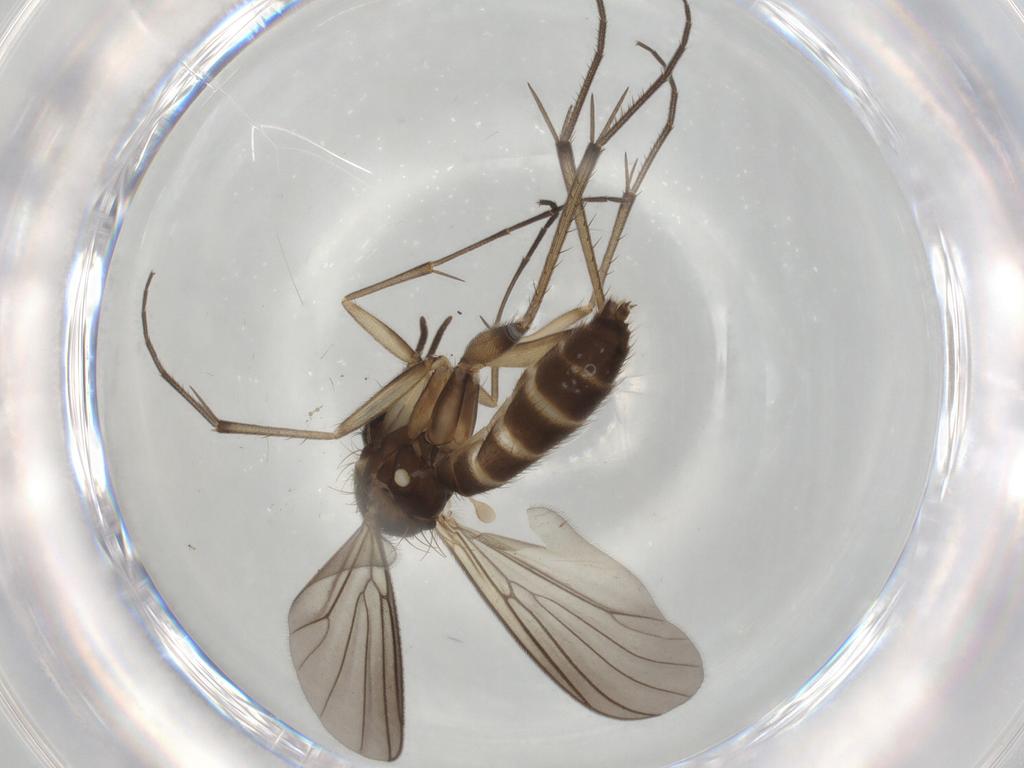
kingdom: Animalia
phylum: Arthropoda
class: Insecta
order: Diptera
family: Mycetophilidae
